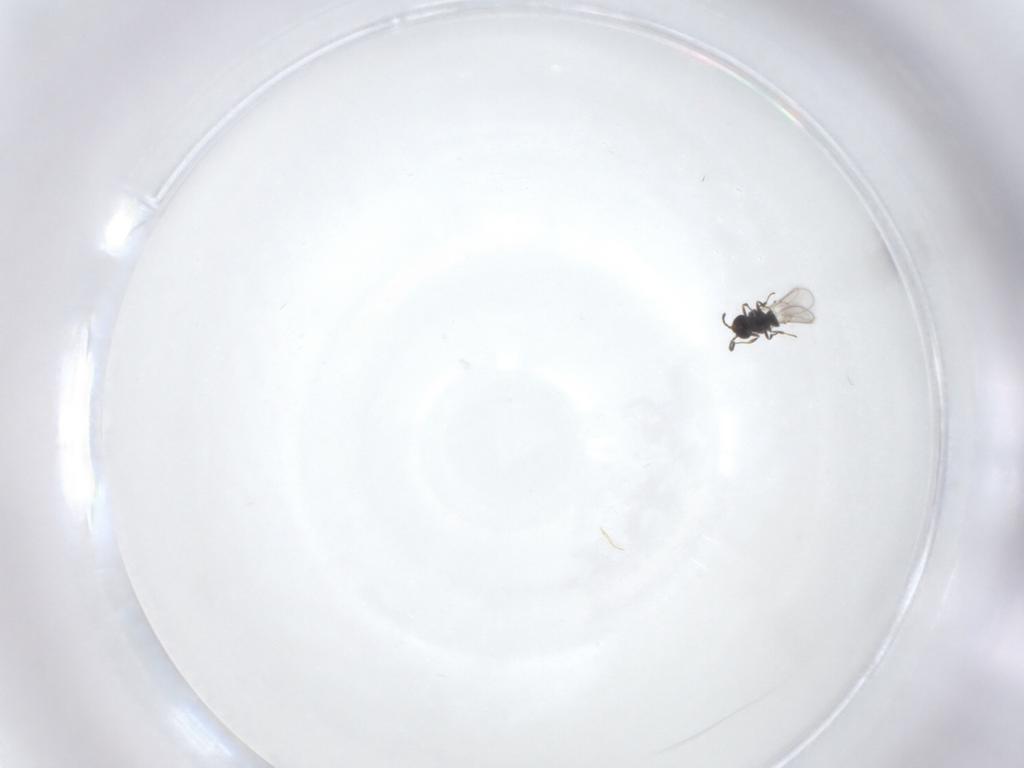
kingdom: Animalia
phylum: Arthropoda
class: Insecta
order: Hymenoptera
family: Scelionidae
